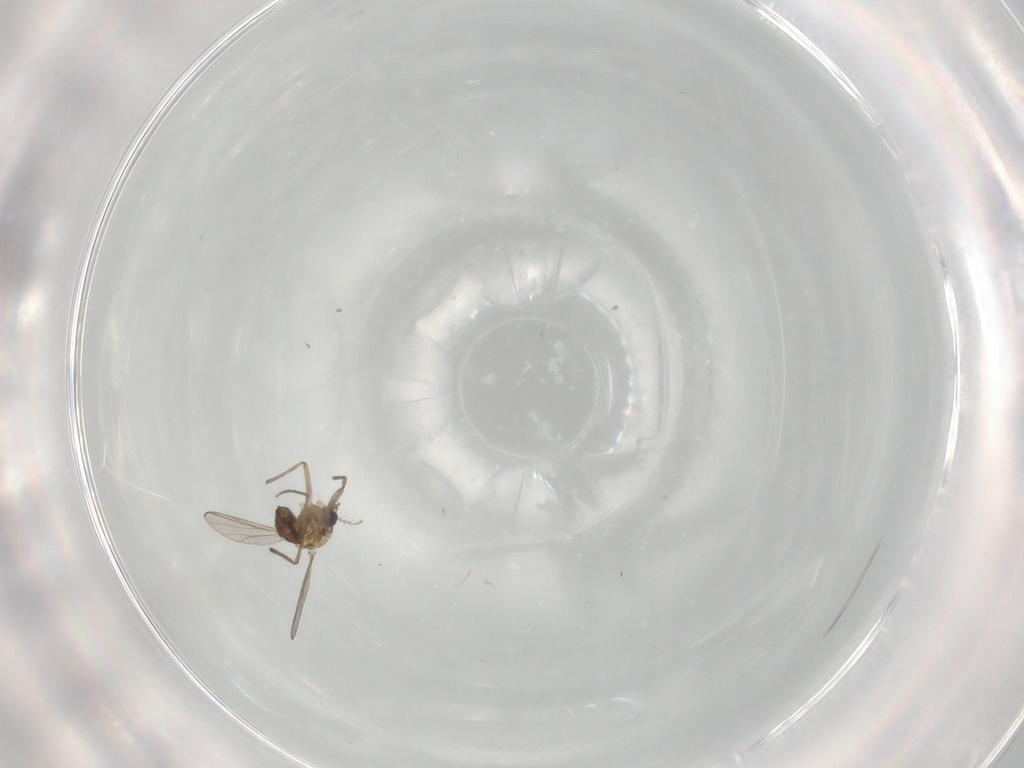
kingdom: Animalia
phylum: Arthropoda
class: Insecta
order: Diptera
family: Chironomidae
